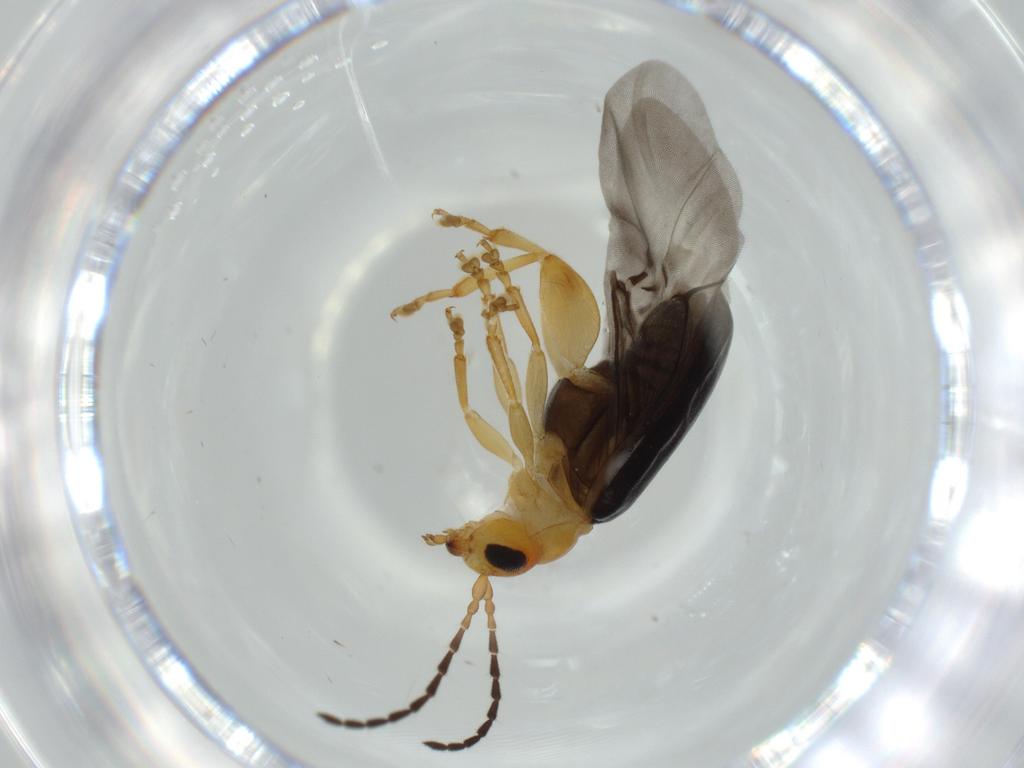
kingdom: Animalia
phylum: Arthropoda
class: Insecta
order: Coleoptera
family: Chrysomelidae
